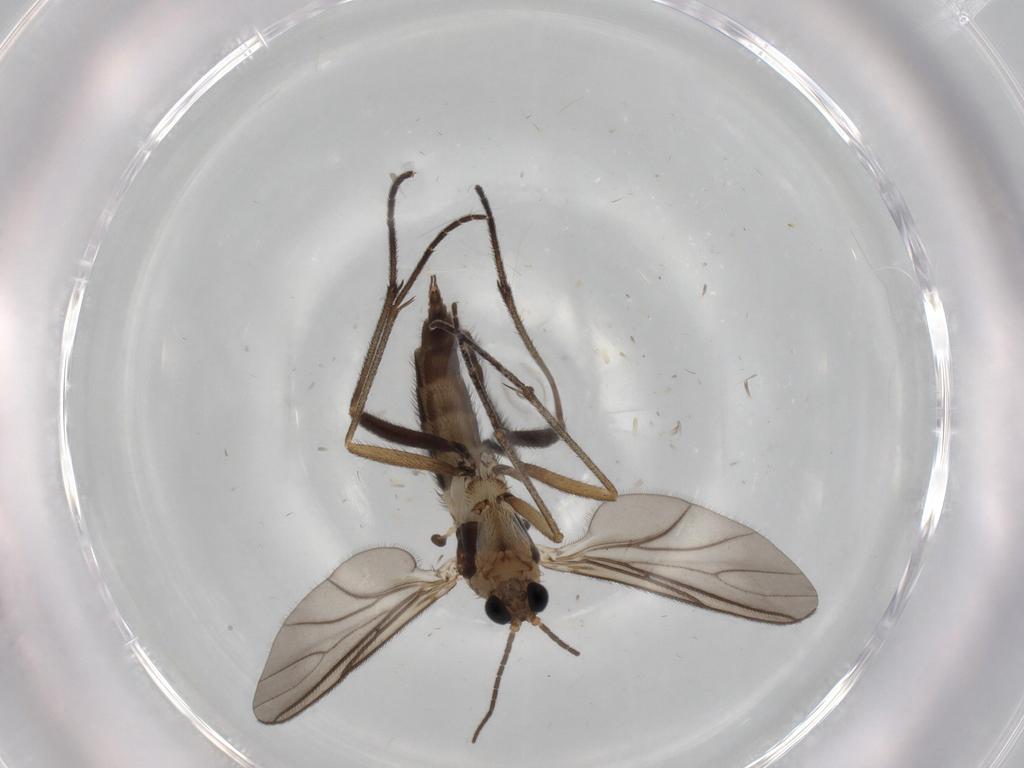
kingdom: Animalia
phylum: Arthropoda
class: Insecta
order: Diptera
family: Sciaridae
